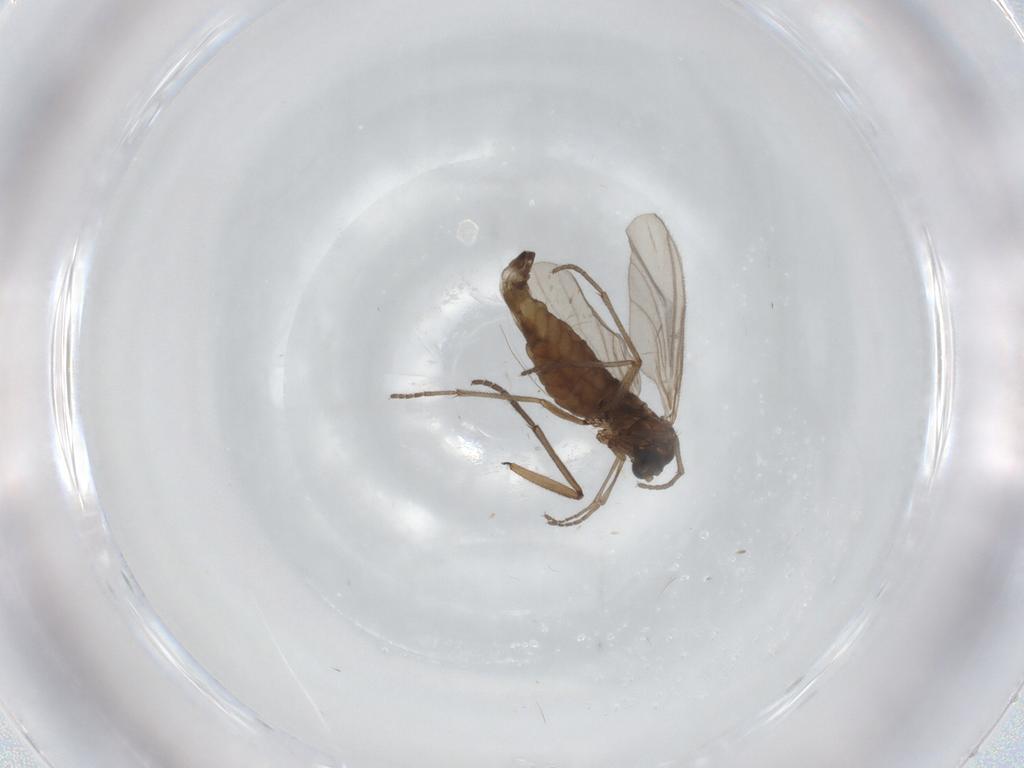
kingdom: Animalia
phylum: Arthropoda
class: Insecta
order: Diptera
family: Sciaridae
